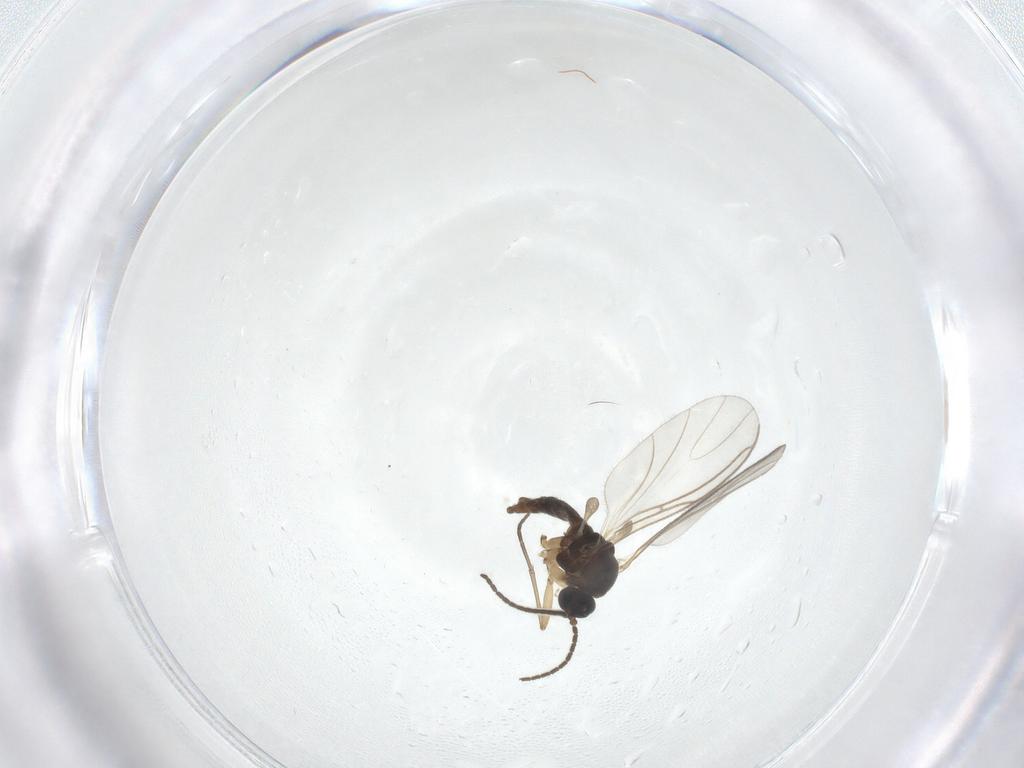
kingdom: Animalia
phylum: Arthropoda
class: Insecta
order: Diptera
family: Sciaridae
